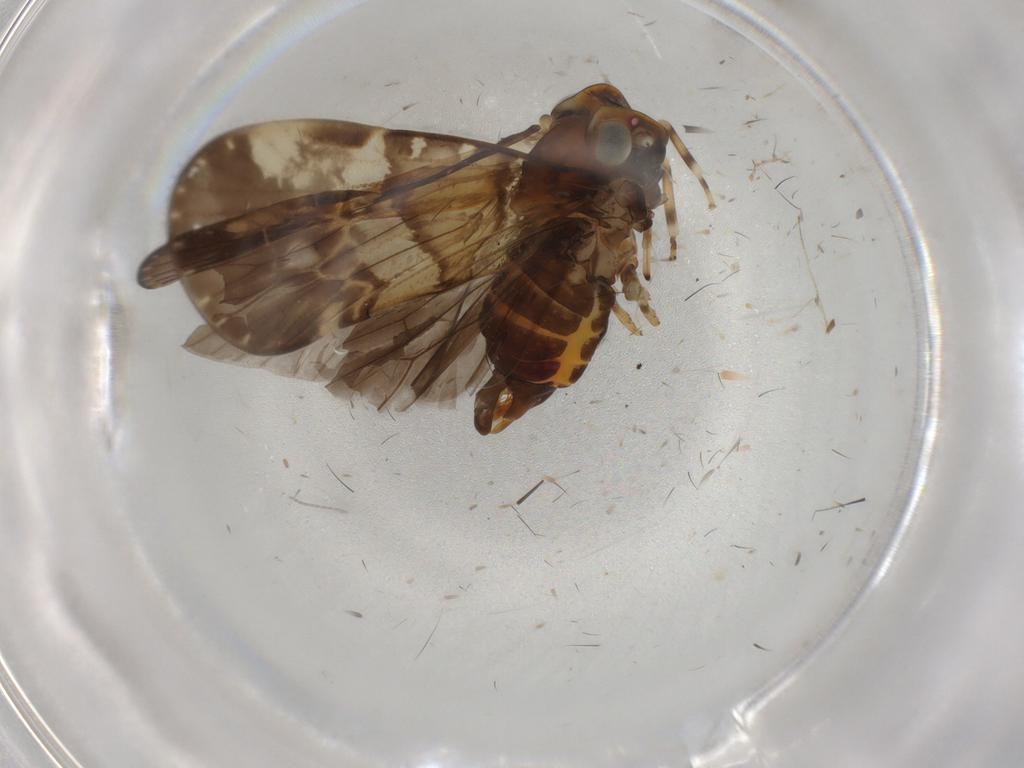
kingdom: Animalia
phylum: Arthropoda
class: Insecta
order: Hemiptera
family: Cixiidae
